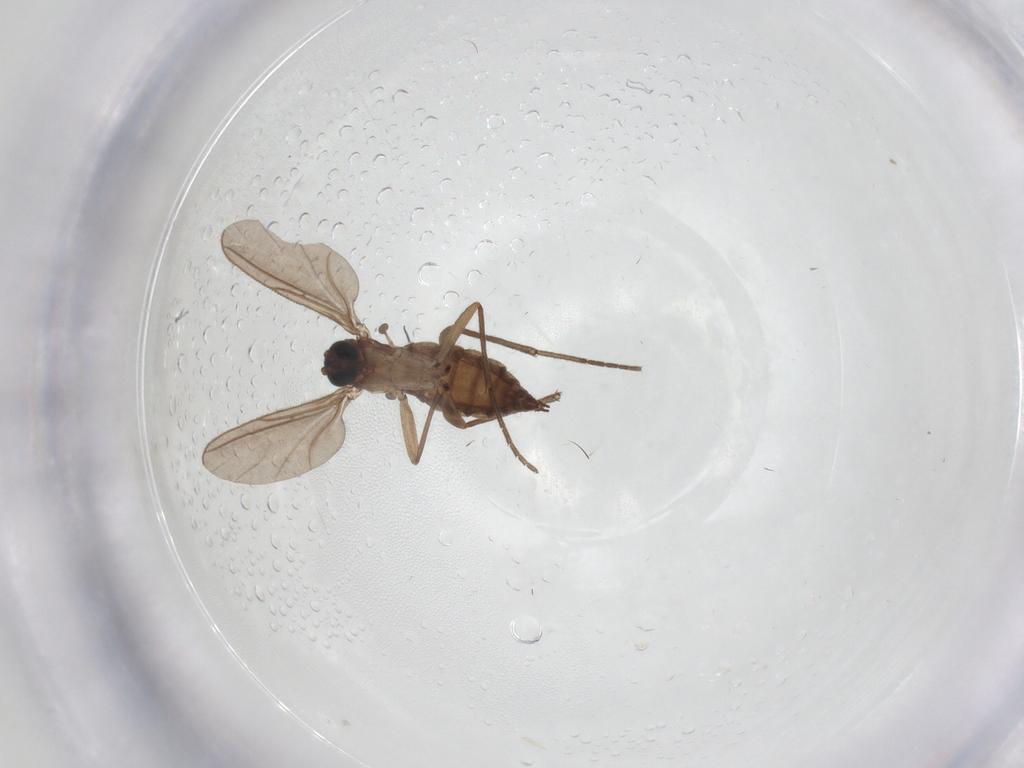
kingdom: Animalia
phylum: Arthropoda
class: Insecta
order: Diptera
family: Sciaridae
